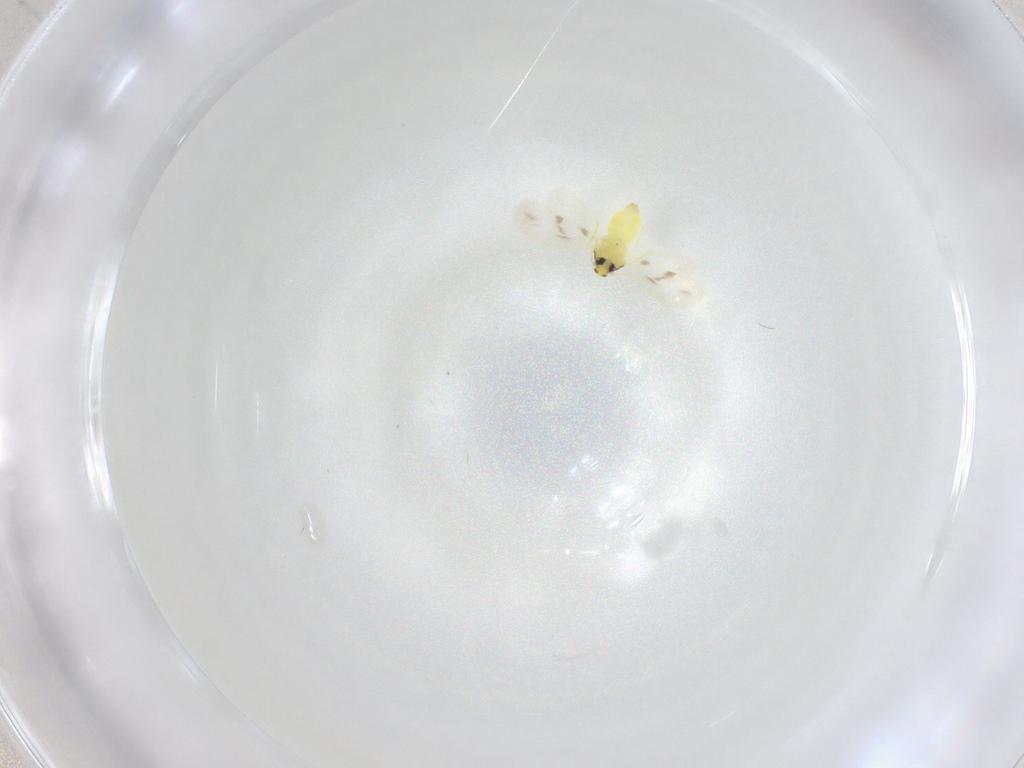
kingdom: Animalia
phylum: Arthropoda
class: Insecta
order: Hemiptera
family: Aleyrodidae
